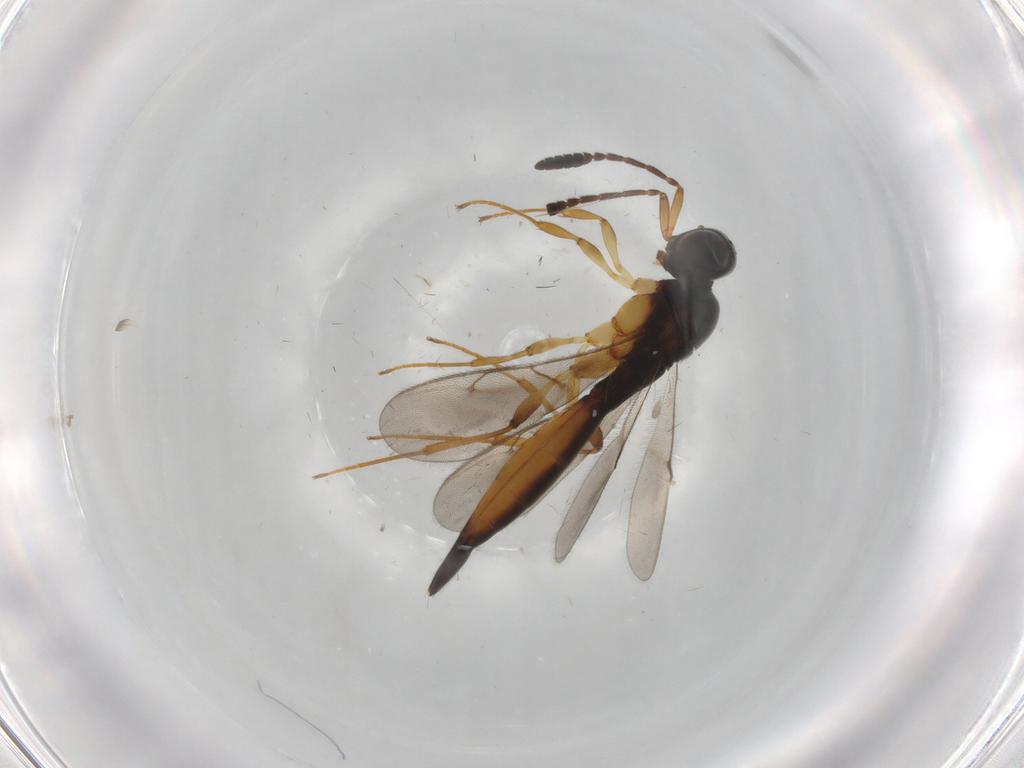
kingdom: Animalia
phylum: Arthropoda
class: Insecta
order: Hymenoptera
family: Scelionidae
